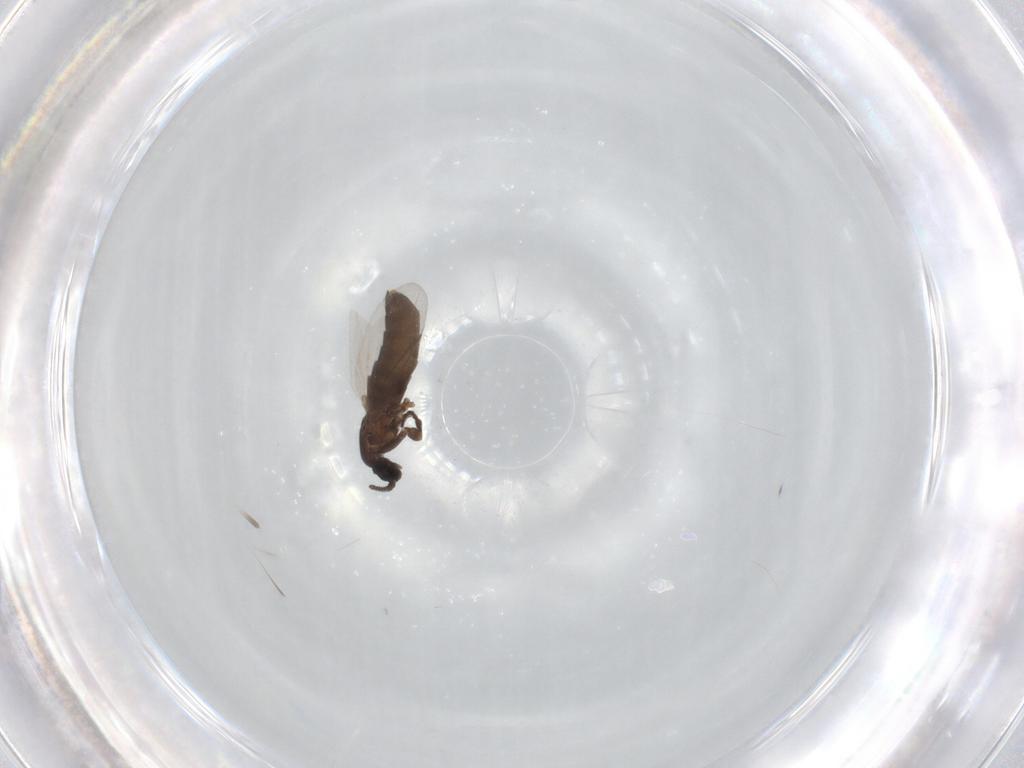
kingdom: Animalia
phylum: Arthropoda
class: Insecta
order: Diptera
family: Scatopsidae
